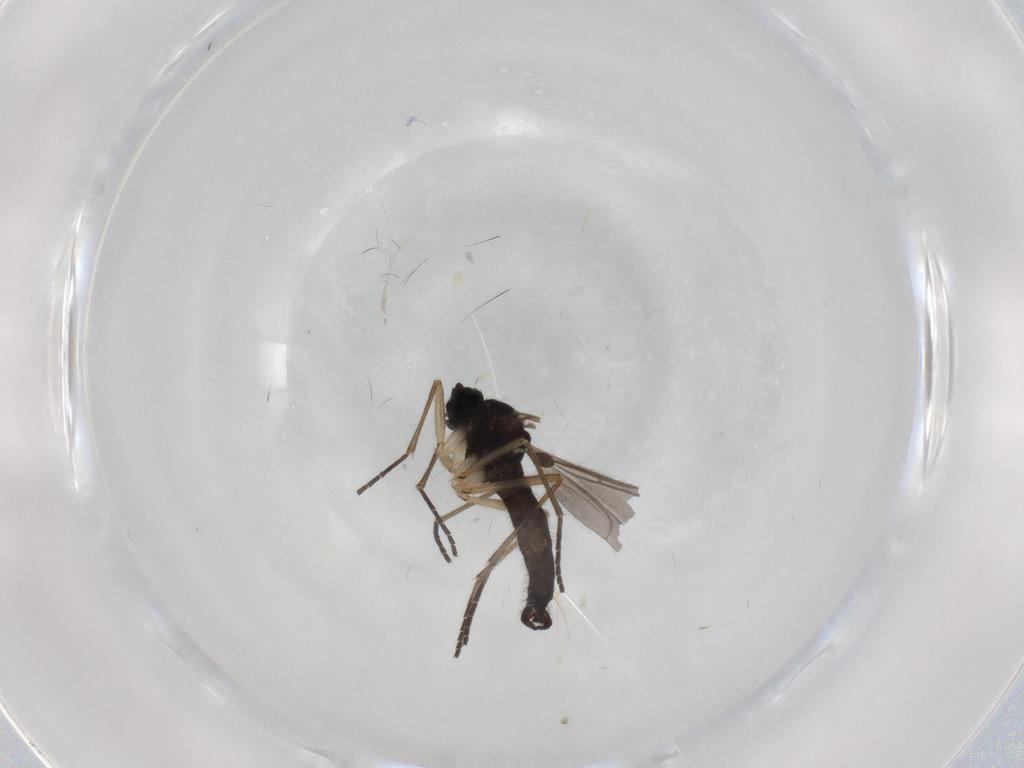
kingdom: Animalia
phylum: Arthropoda
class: Insecta
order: Diptera
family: Sciaridae
